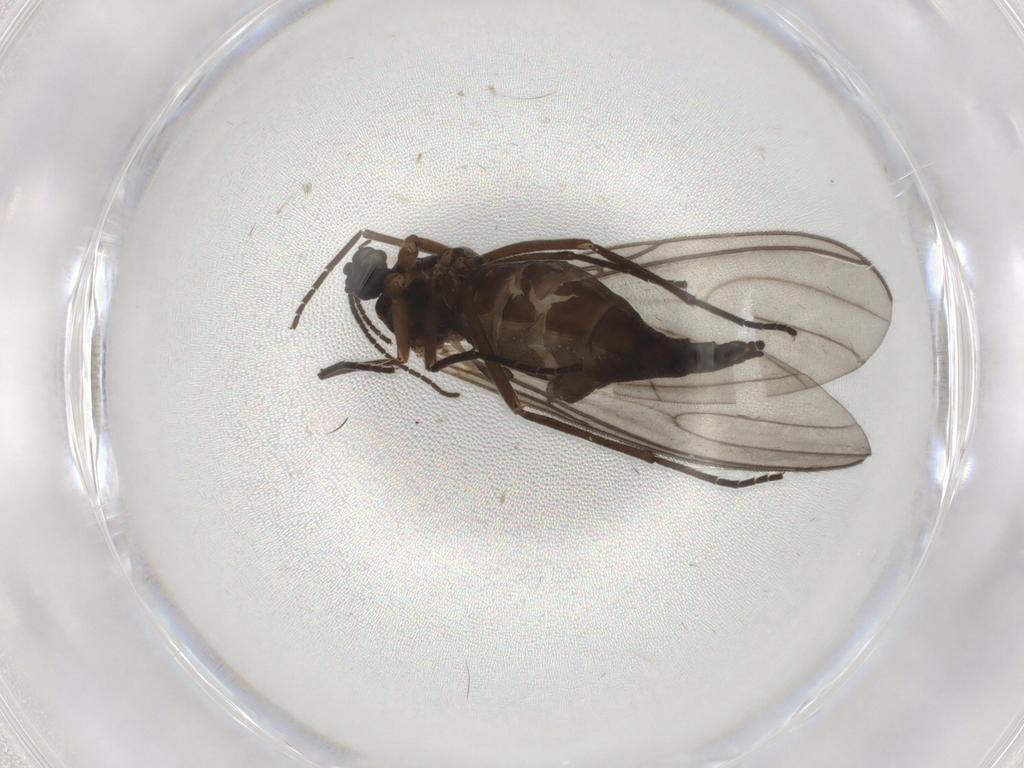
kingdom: Animalia
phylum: Arthropoda
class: Insecta
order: Diptera
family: Sciaridae
